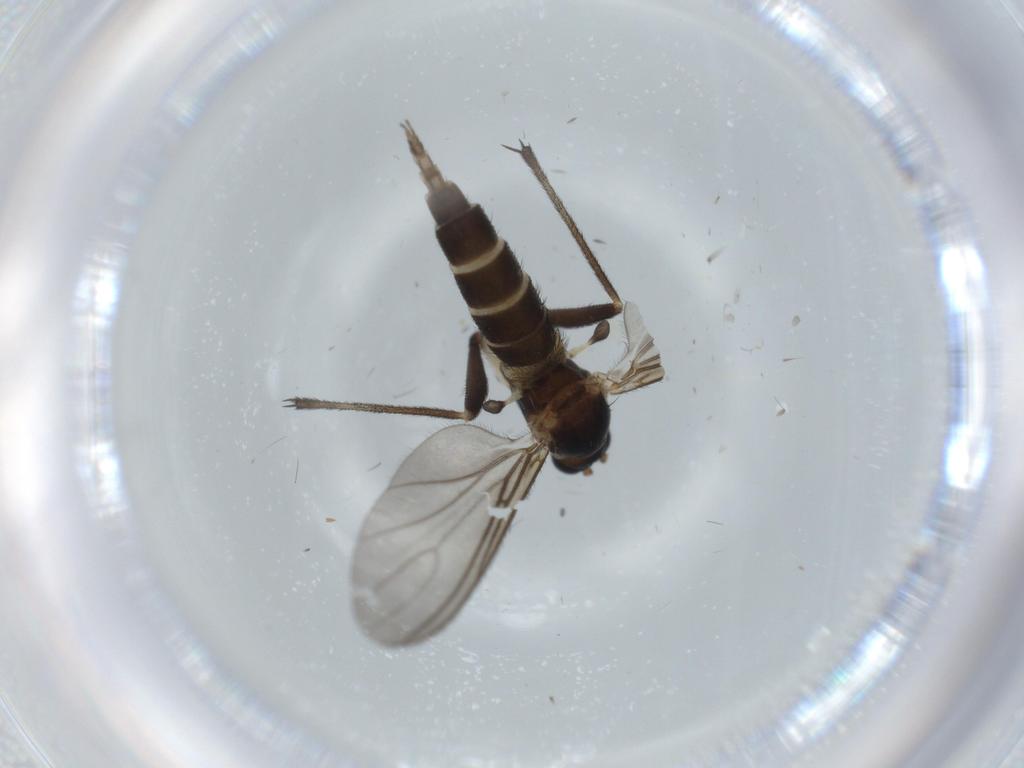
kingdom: Animalia
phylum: Arthropoda
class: Insecta
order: Diptera
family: Sciaridae
